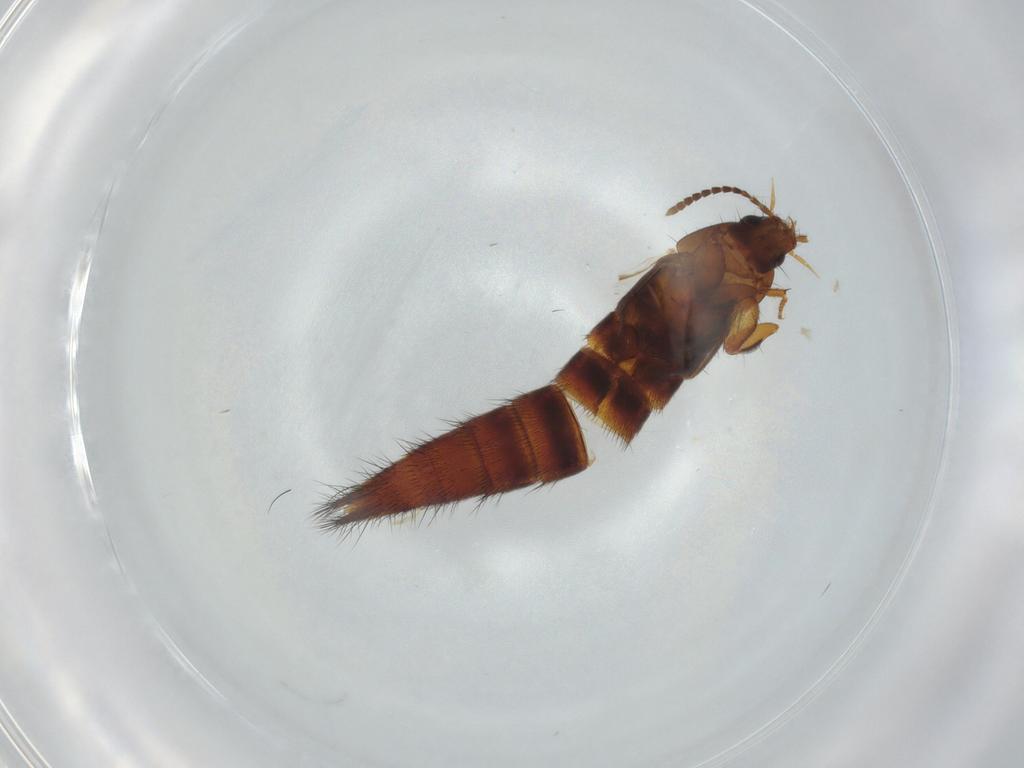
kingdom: Animalia
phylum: Arthropoda
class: Insecta
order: Coleoptera
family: Staphylinidae
